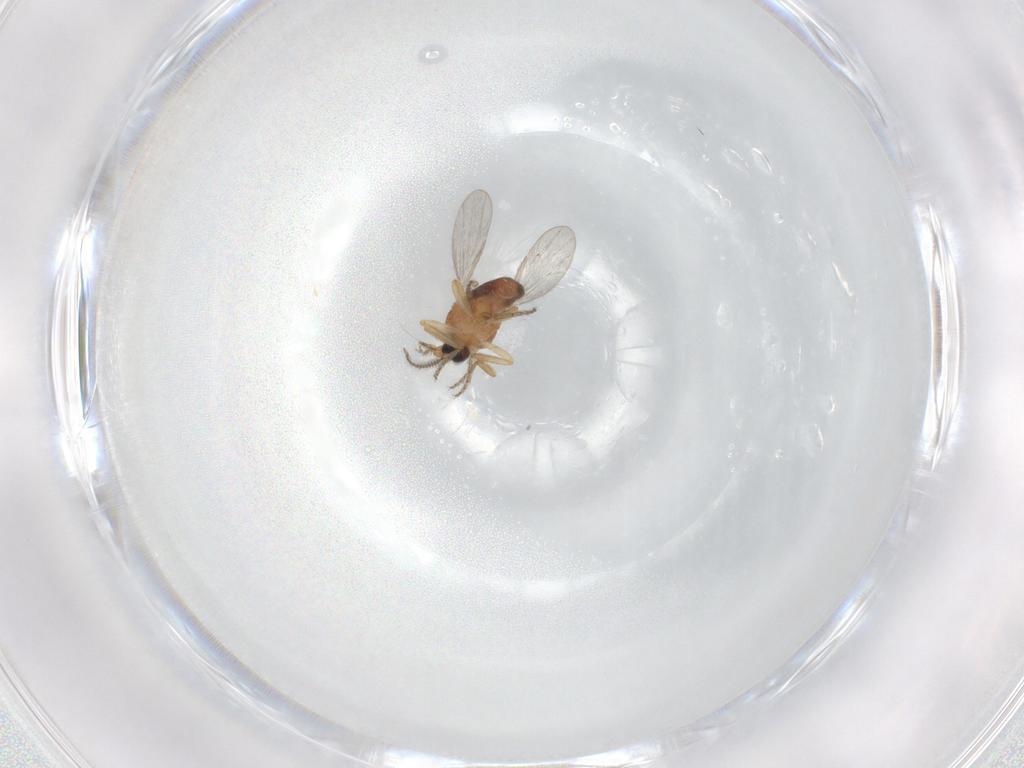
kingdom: Animalia
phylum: Arthropoda
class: Insecta
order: Diptera
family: Ceratopogonidae
